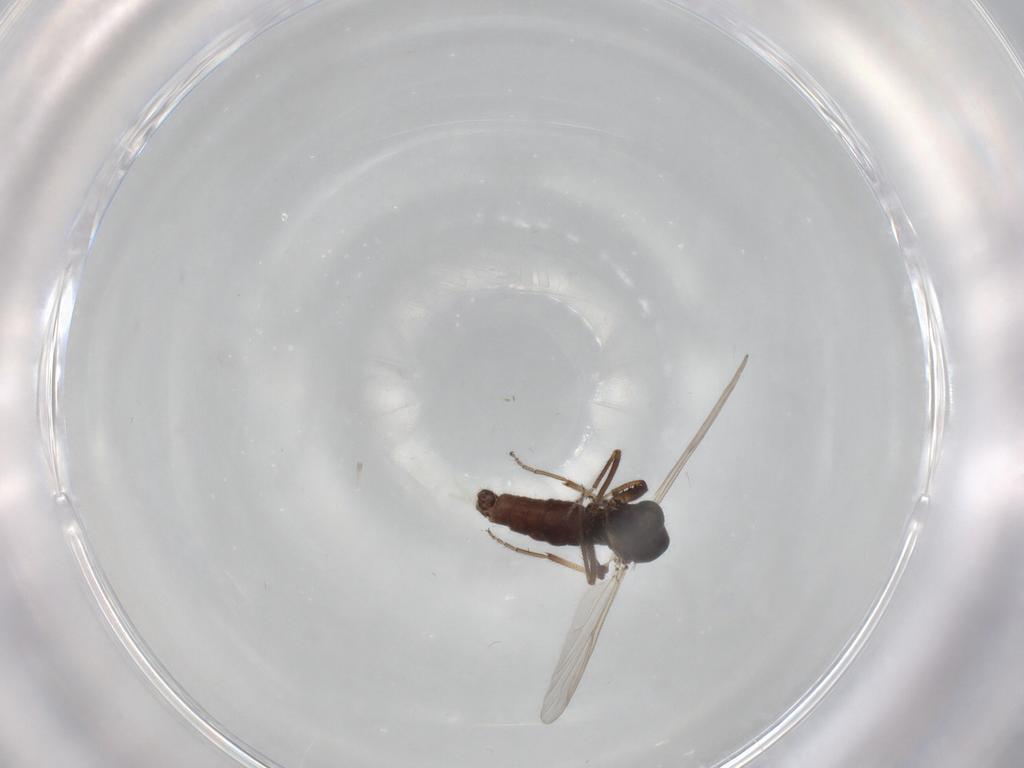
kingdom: Animalia
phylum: Arthropoda
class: Insecta
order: Diptera
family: Ceratopogonidae
